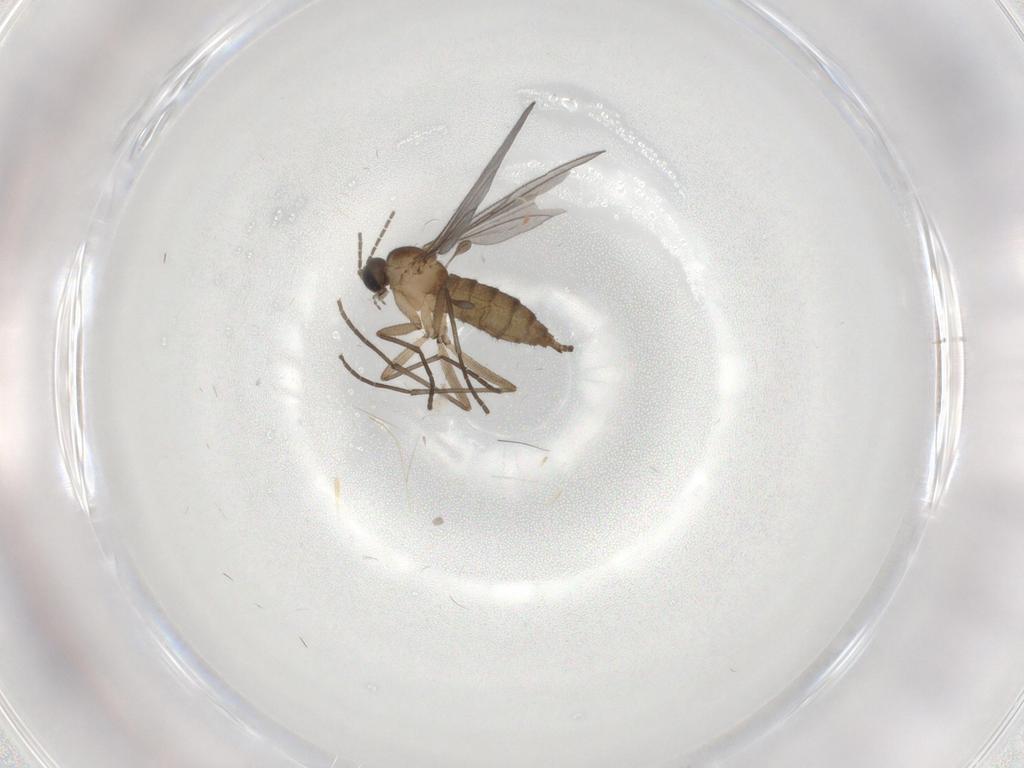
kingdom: Animalia
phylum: Arthropoda
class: Insecta
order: Diptera
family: Sciaridae
